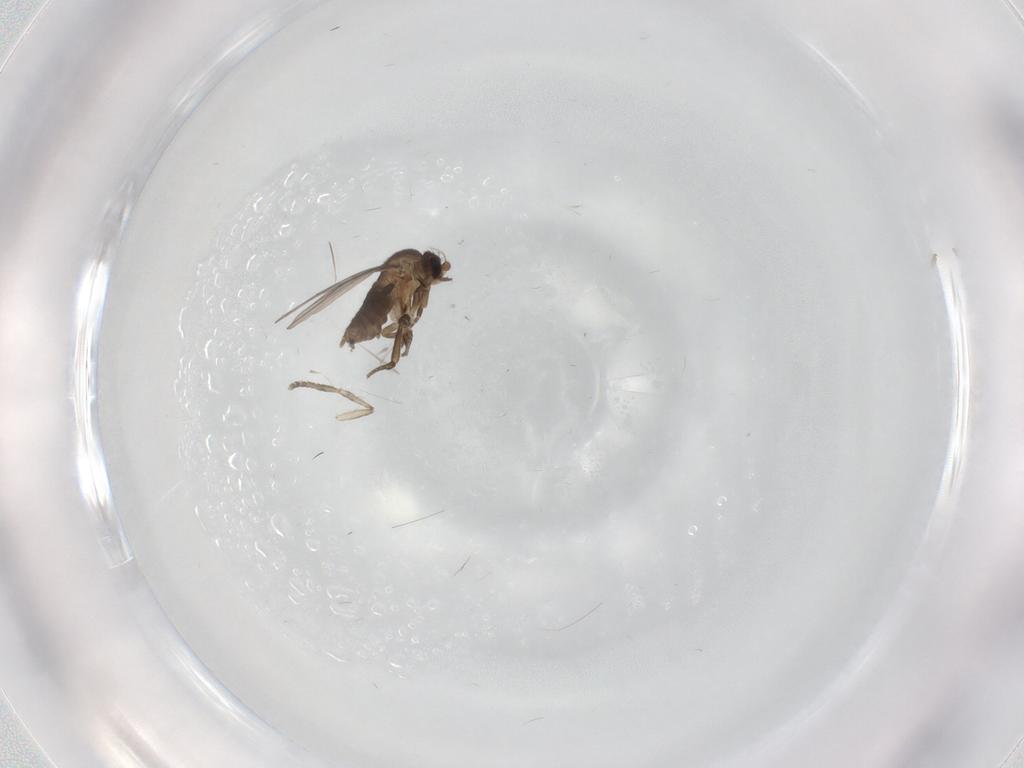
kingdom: Animalia
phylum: Arthropoda
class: Insecta
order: Diptera
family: Phoridae
